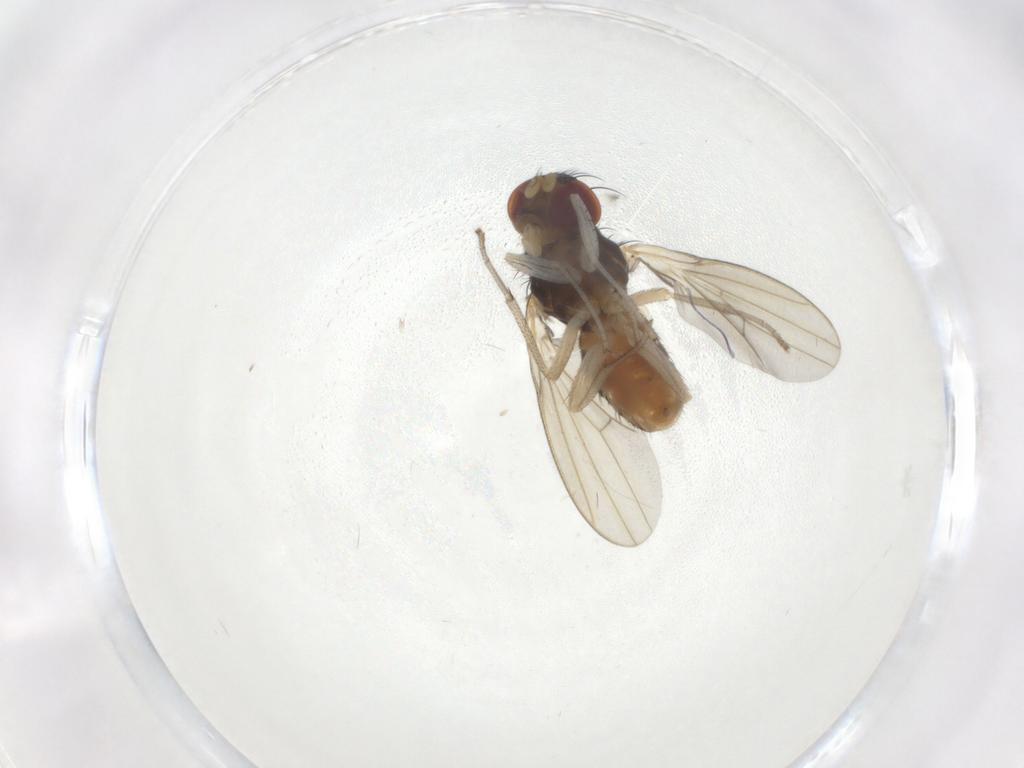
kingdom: Animalia
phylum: Arthropoda
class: Insecta
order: Diptera
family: Lauxaniidae
